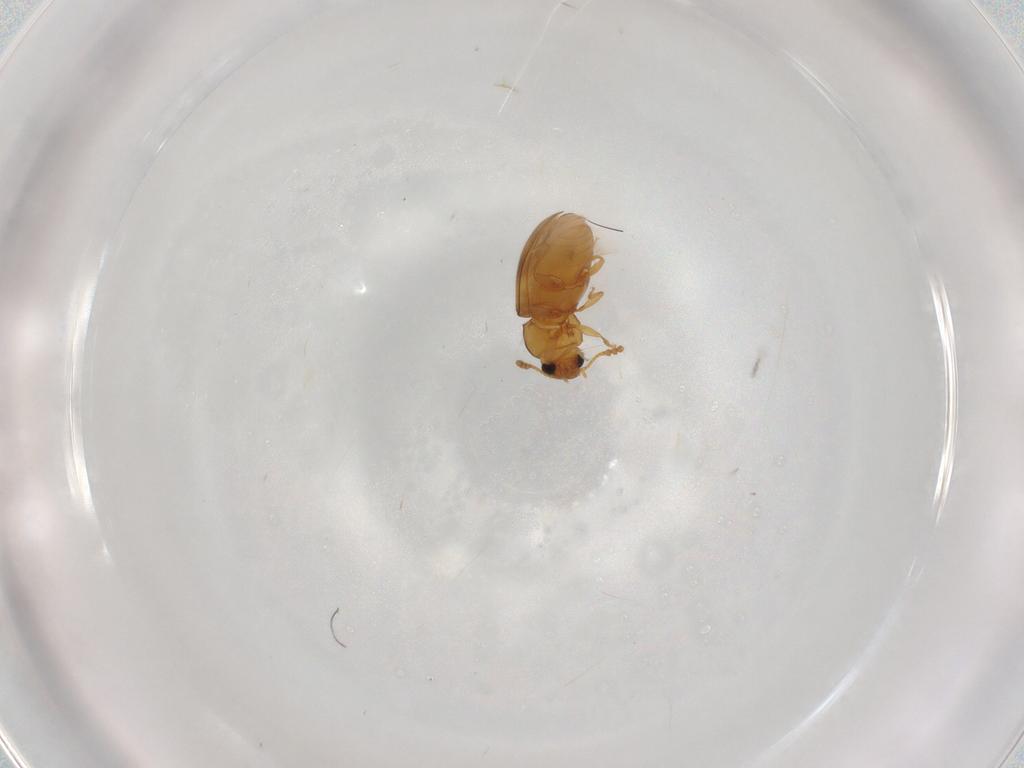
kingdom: Animalia
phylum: Arthropoda
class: Insecta
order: Coleoptera
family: Erotylidae
